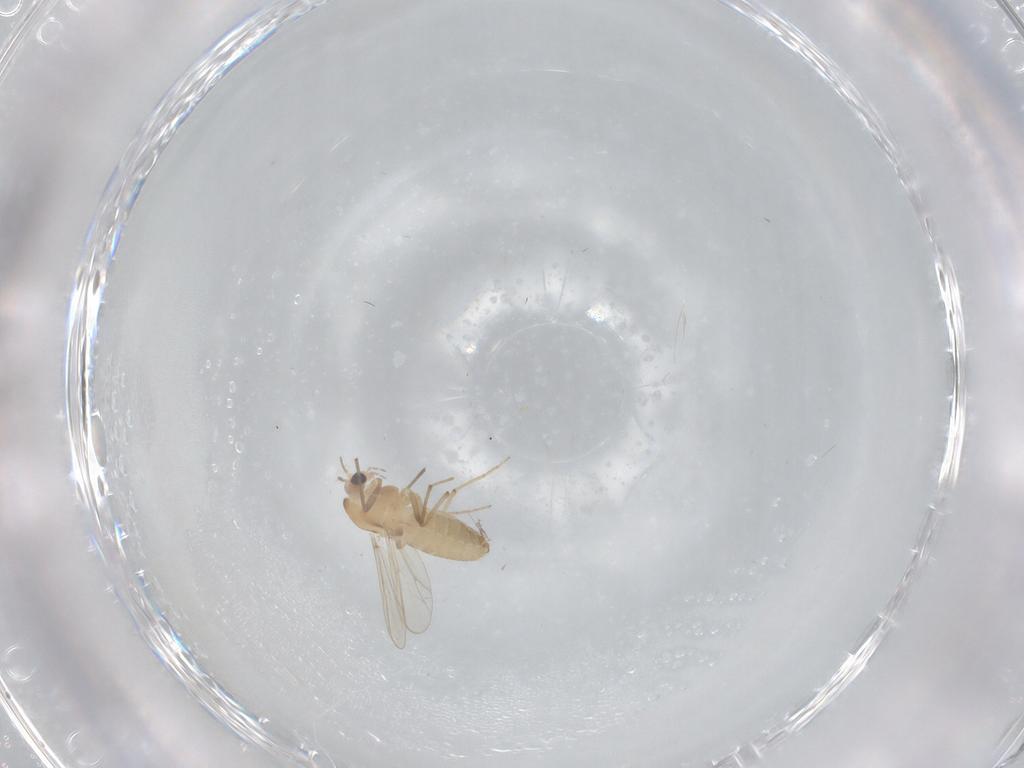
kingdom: Animalia
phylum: Arthropoda
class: Insecta
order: Diptera
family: Chironomidae
